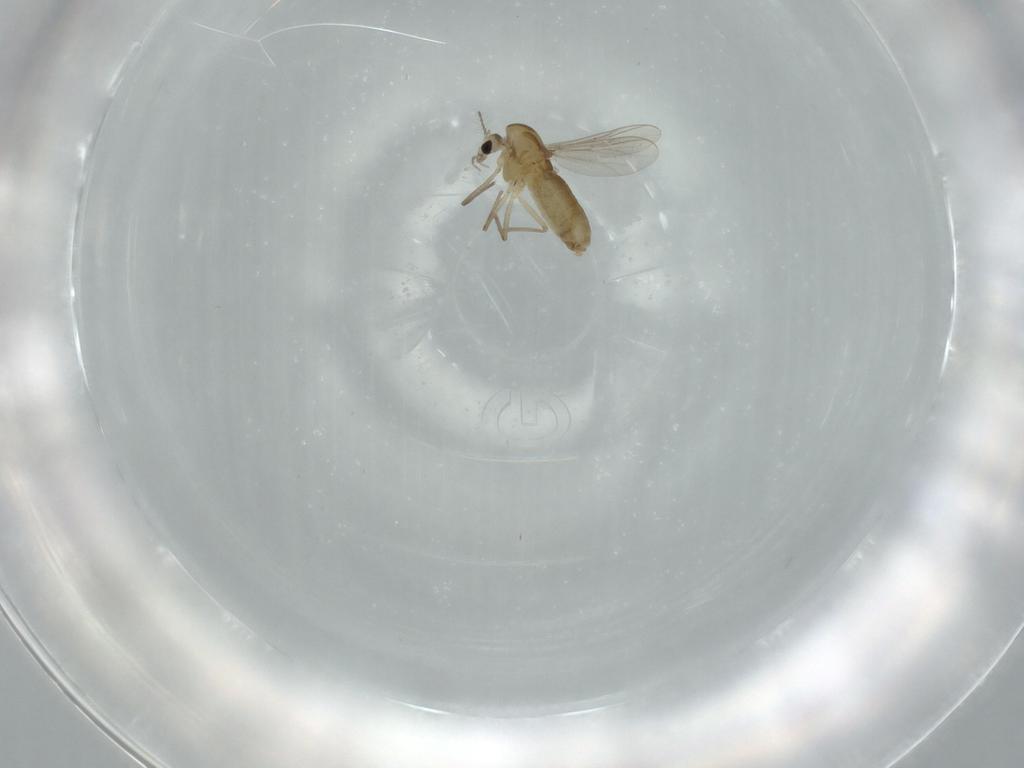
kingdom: Animalia
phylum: Arthropoda
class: Insecta
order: Diptera
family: Chironomidae
